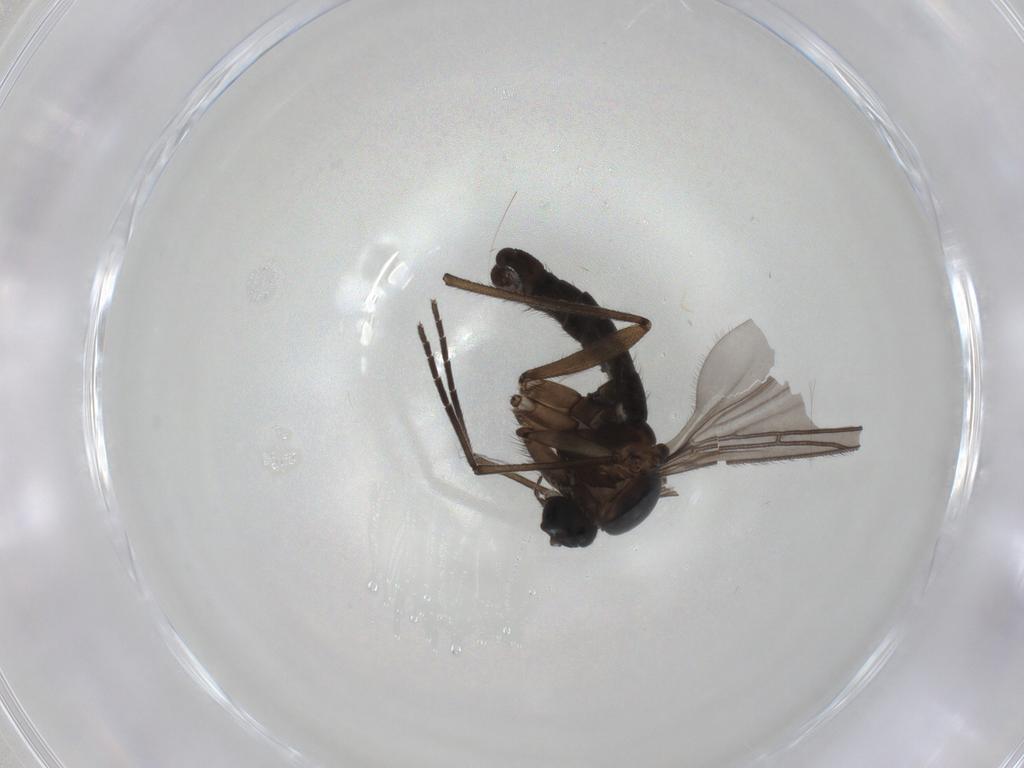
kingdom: Animalia
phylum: Arthropoda
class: Insecta
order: Diptera
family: Sciaridae
